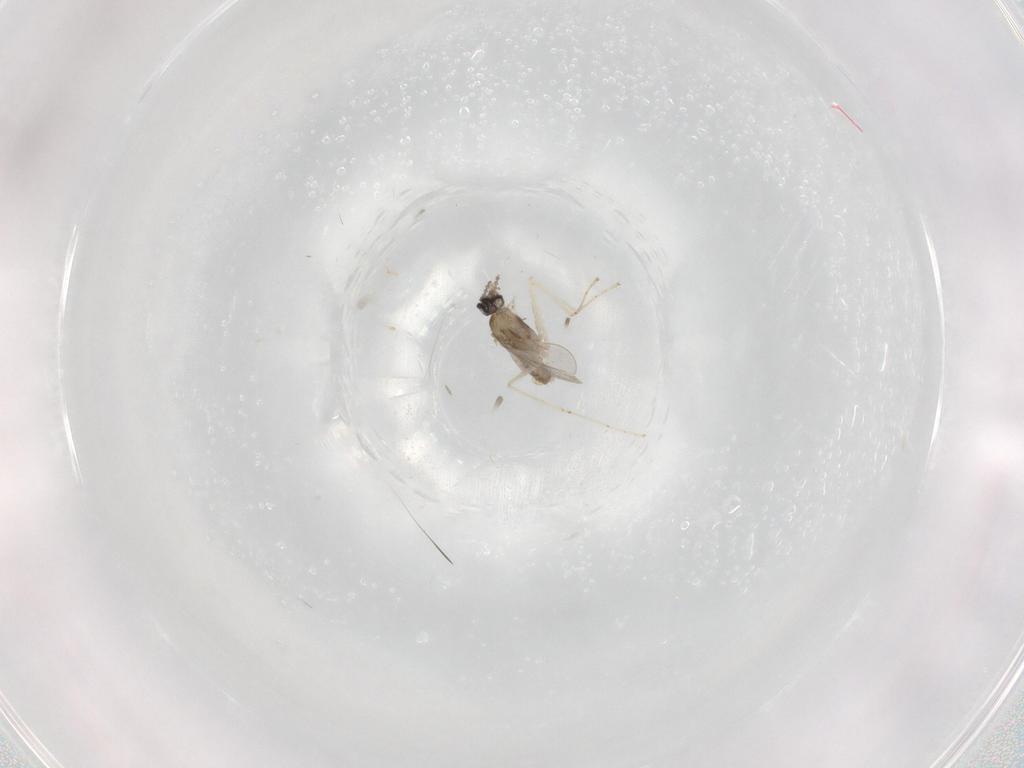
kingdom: Animalia
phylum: Arthropoda
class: Insecta
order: Diptera
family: Cecidomyiidae
